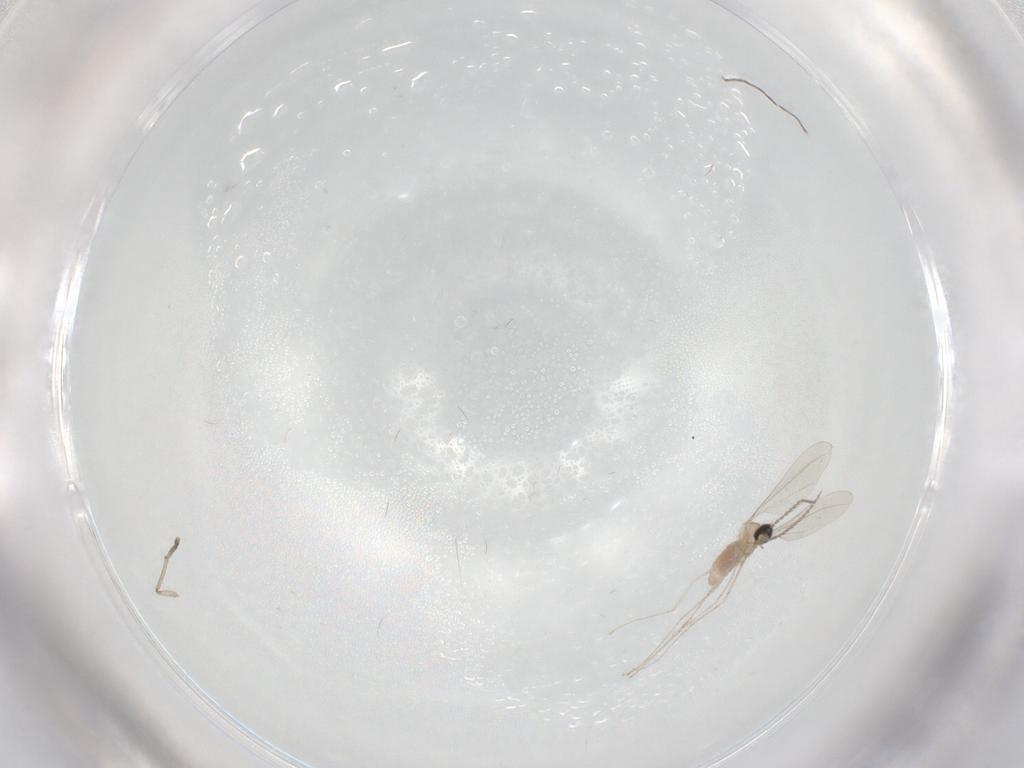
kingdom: Animalia
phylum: Arthropoda
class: Insecta
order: Diptera
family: Cecidomyiidae
